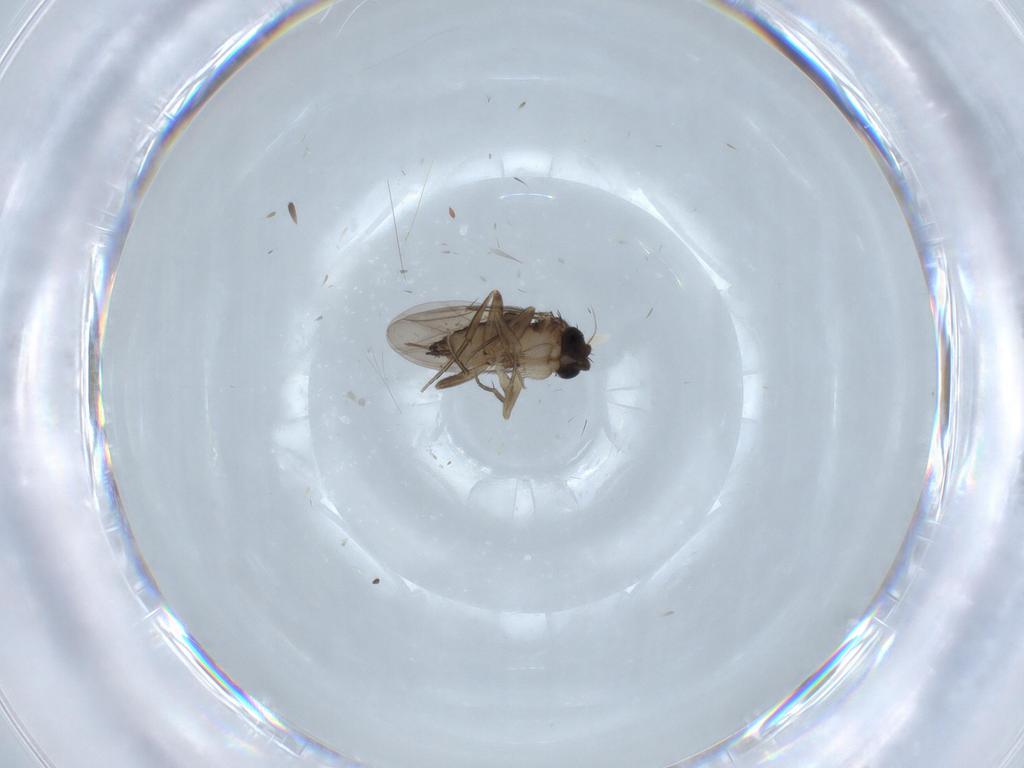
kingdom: Animalia
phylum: Arthropoda
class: Insecta
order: Diptera
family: Phoridae
